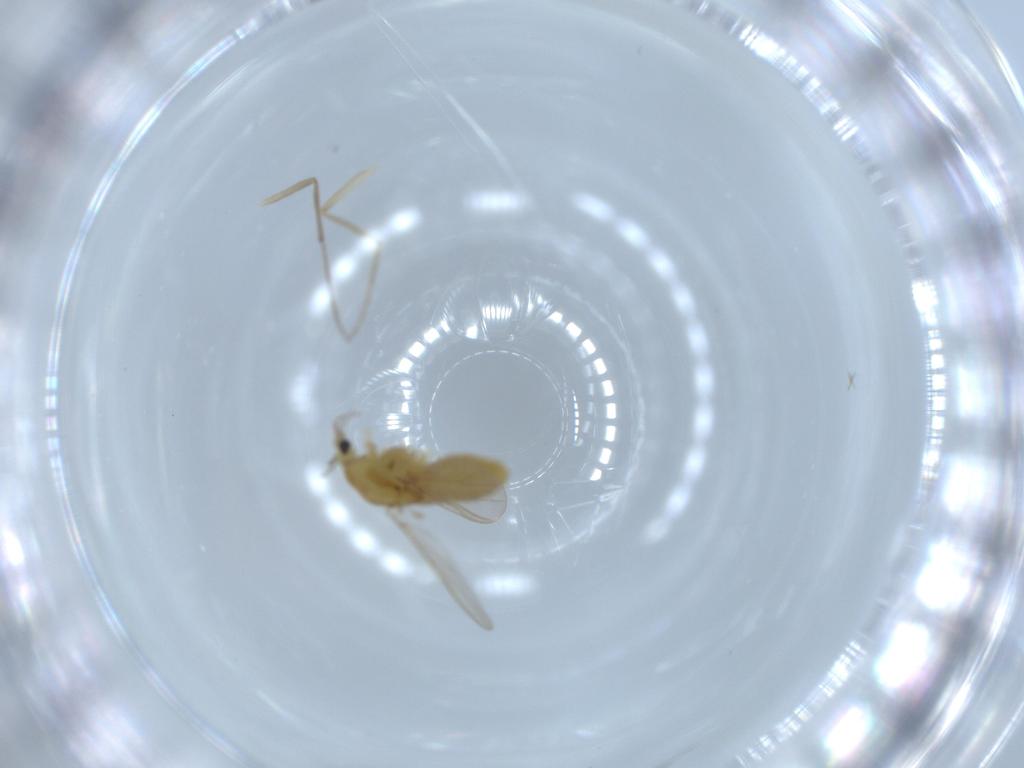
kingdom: Animalia
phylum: Arthropoda
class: Insecta
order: Diptera
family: Chironomidae
